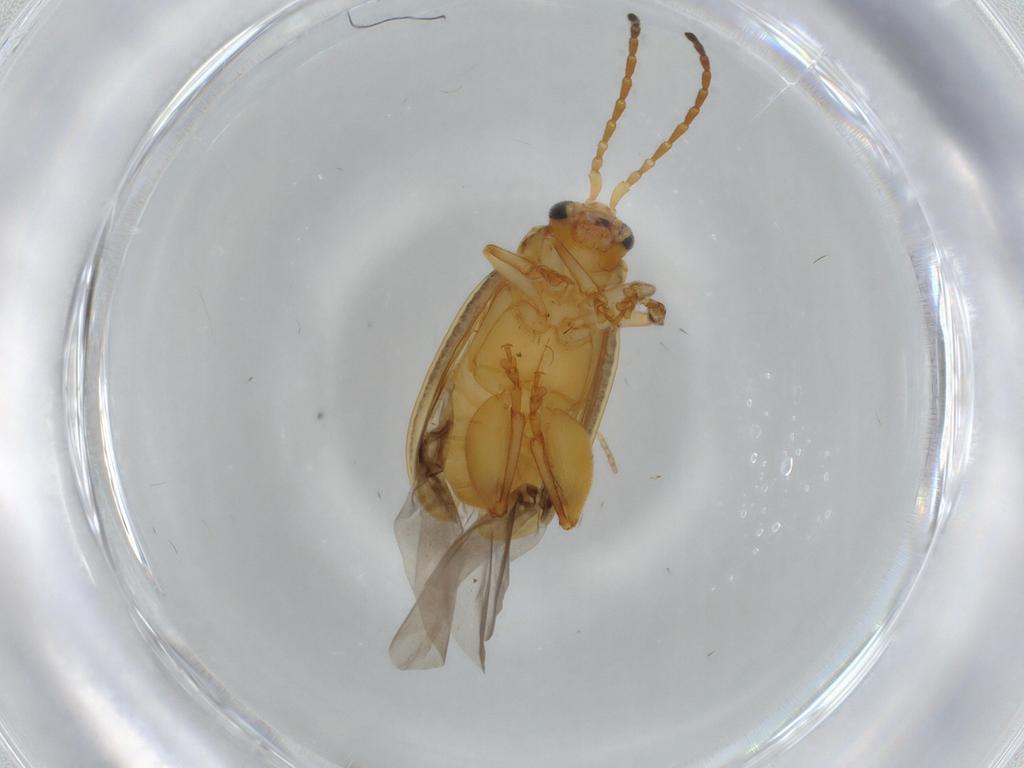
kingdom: Animalia
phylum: Arthropoda
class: Insecta
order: Coleoptera
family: Chrysomelidae
